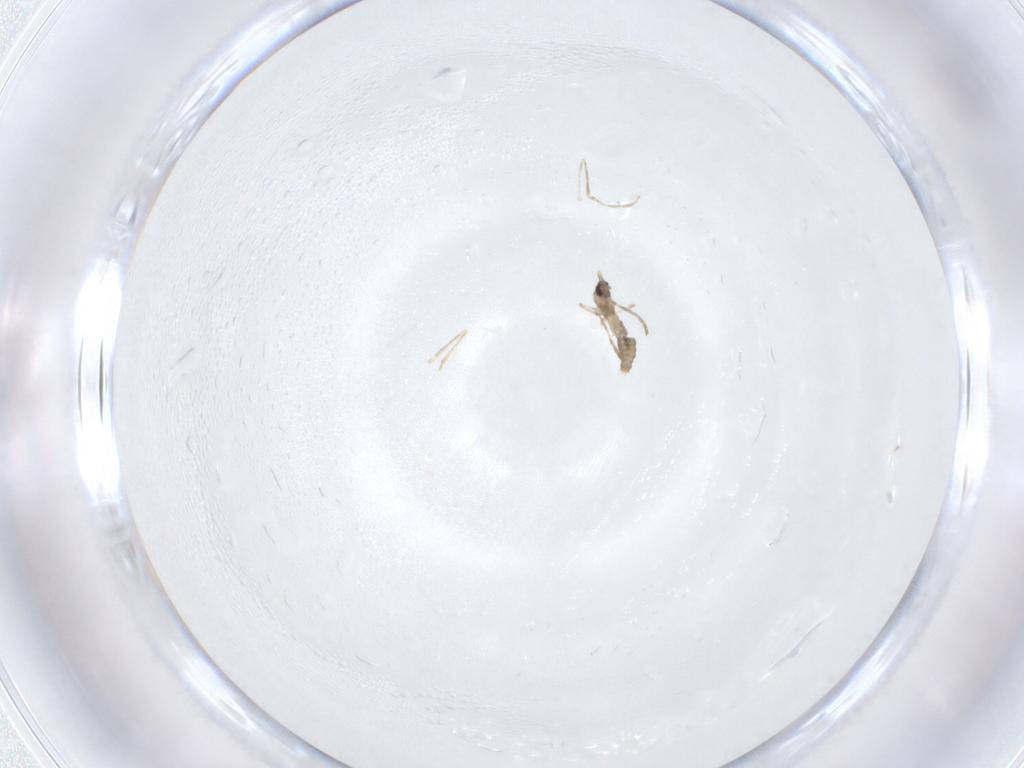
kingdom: Animalia
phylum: Arthropoda
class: Insecta
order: Diptera
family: Cecidomyiidae
